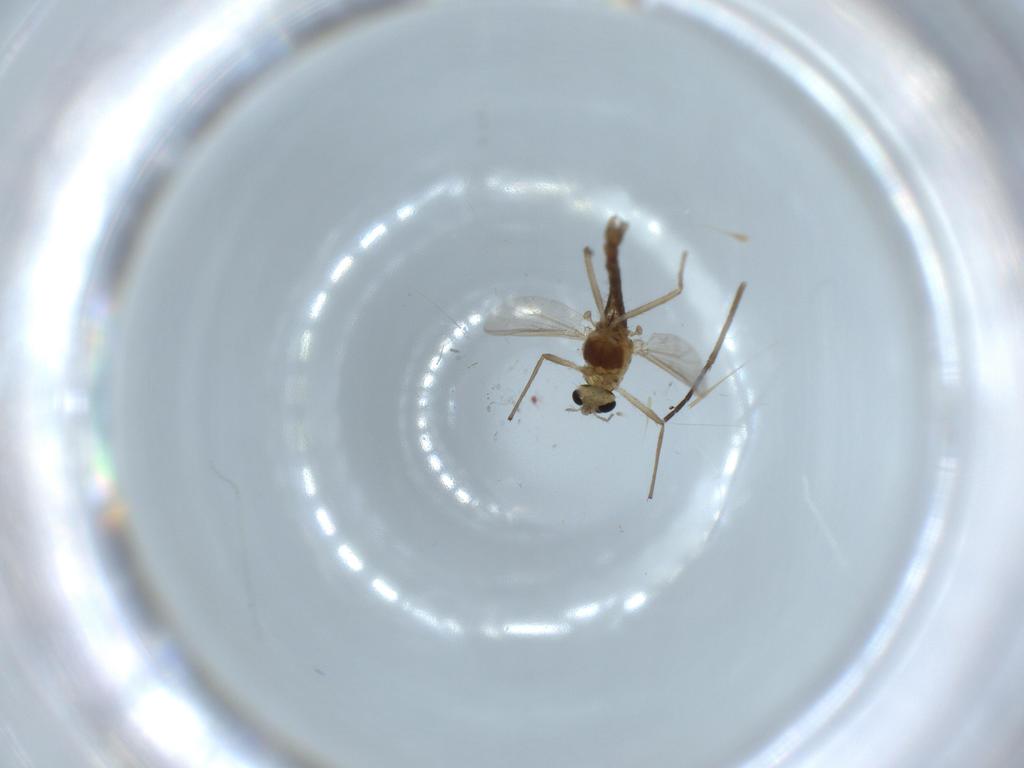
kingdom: Animalia
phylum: Arthropoda
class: Insecta
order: Diptera
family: Chironomidae
